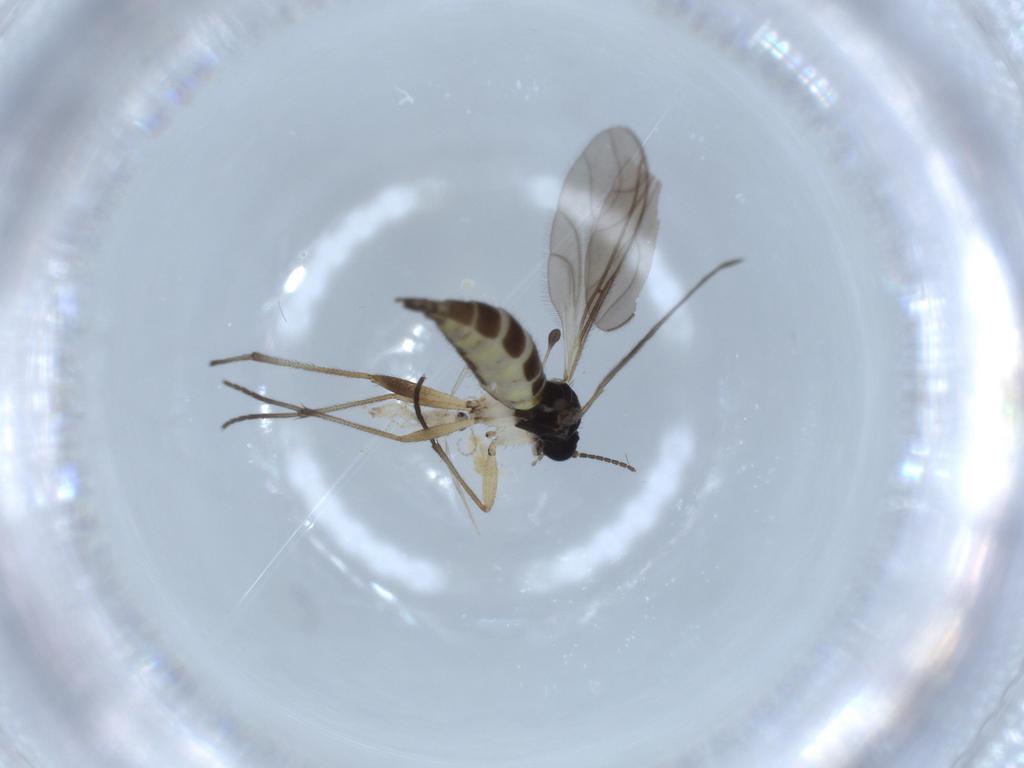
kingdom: Animalia
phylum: Arthropoda
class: Insecta
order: Diptera
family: Sciaridae
